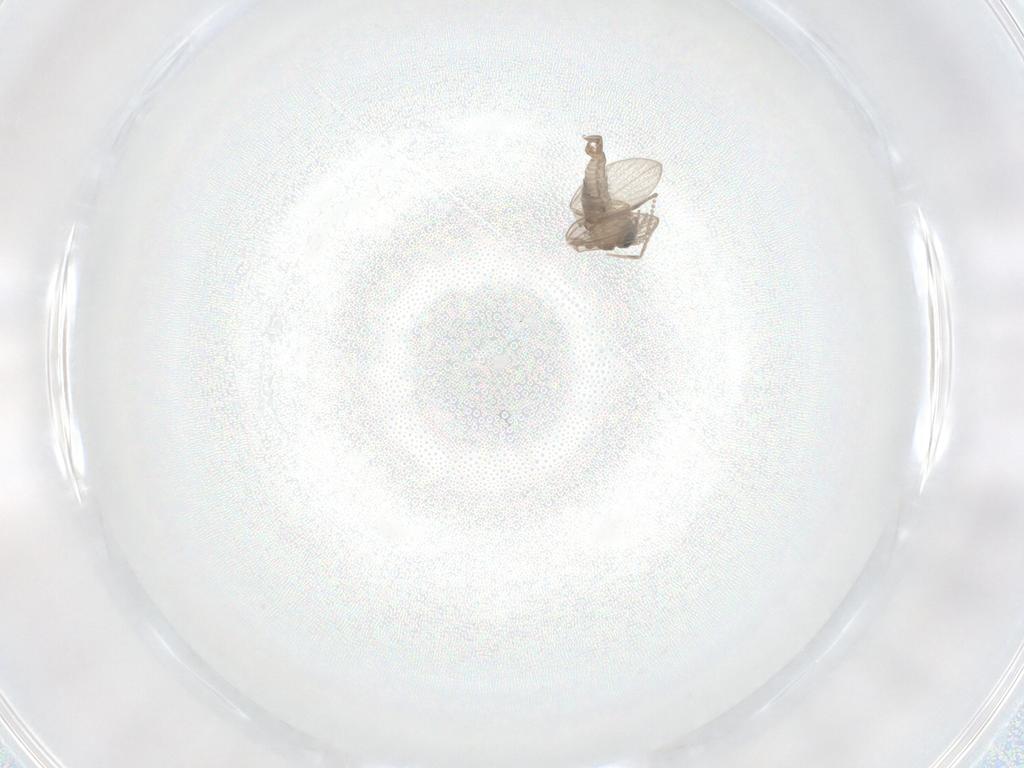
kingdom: Animalia
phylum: Arthropoda
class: Insecta
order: Diptera
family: Psychodidae
